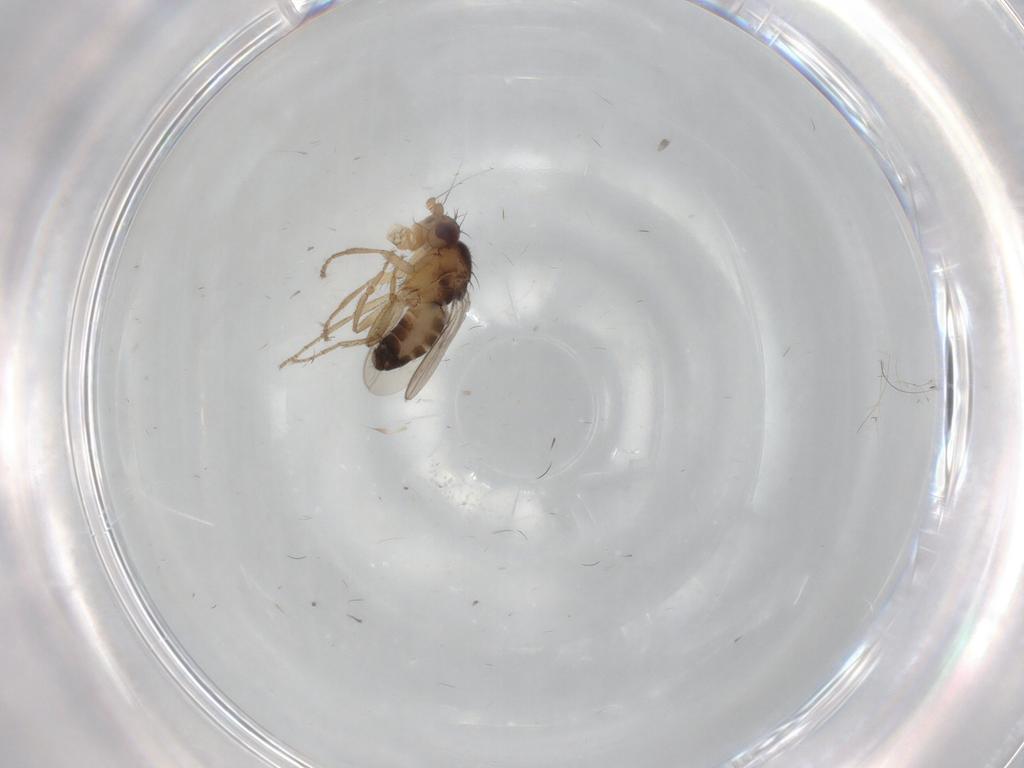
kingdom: Animalia
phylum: Arthropoda
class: Insecta
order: Diptera
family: Sphaeroceridae
